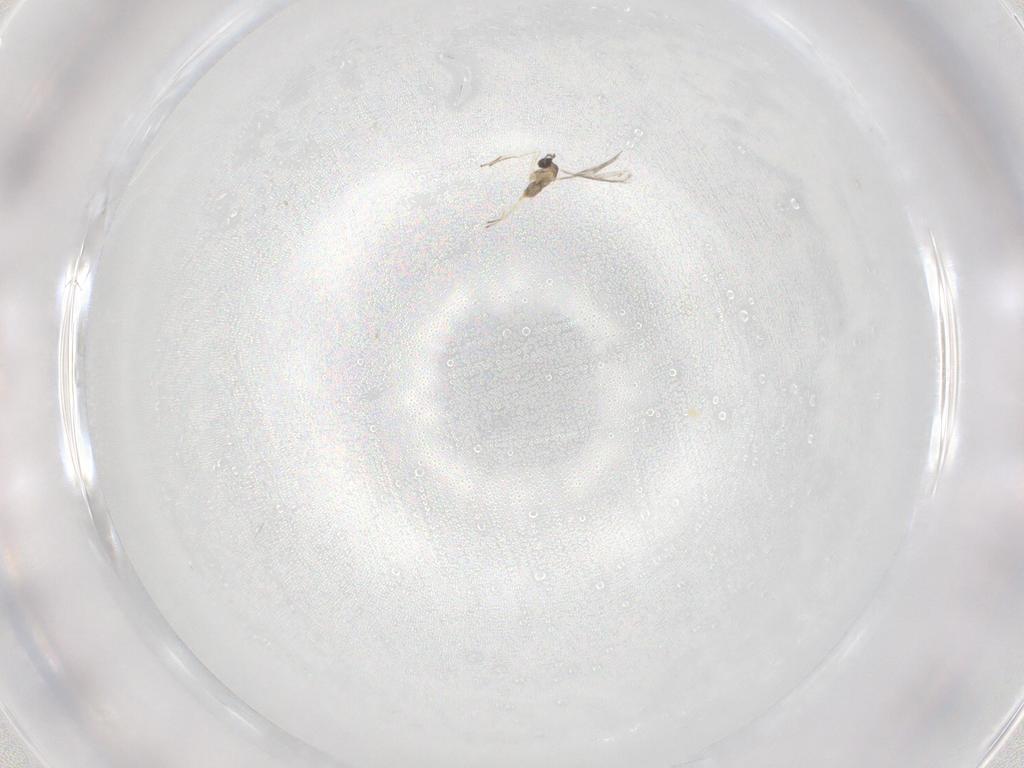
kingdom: Animalia
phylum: Arthropoda
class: Insecta
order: Diptera
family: Cecidomyiidae
